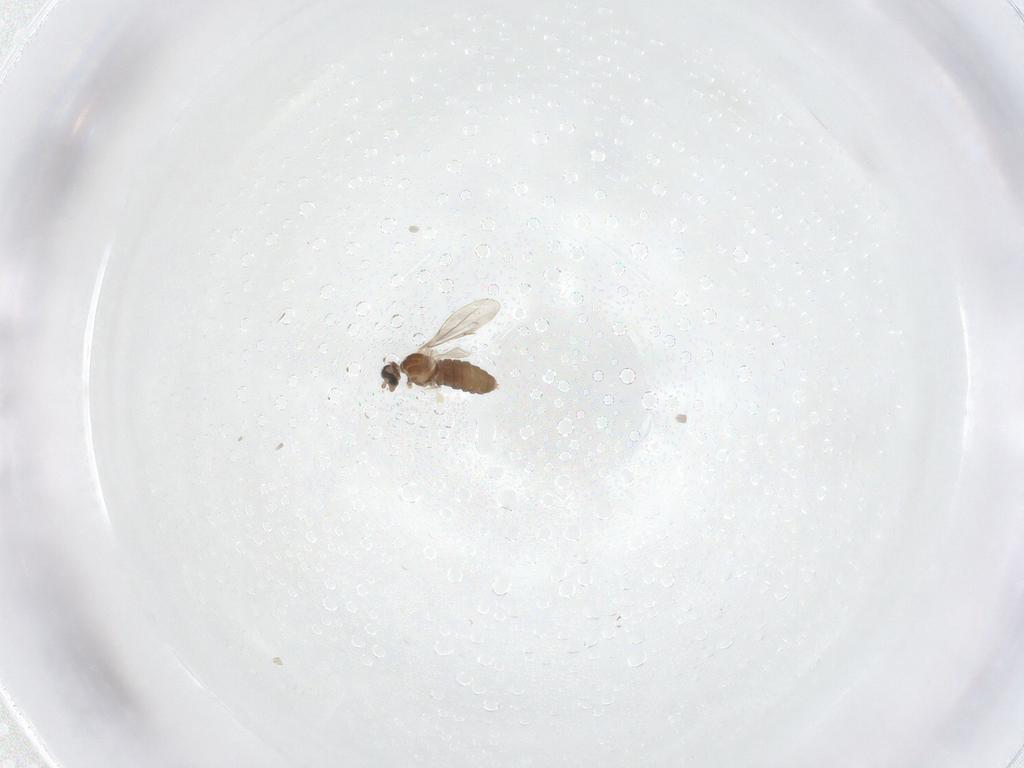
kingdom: Animalia
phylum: Arthropoda
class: Insecta
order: Diptera
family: Cecidomyiidae
